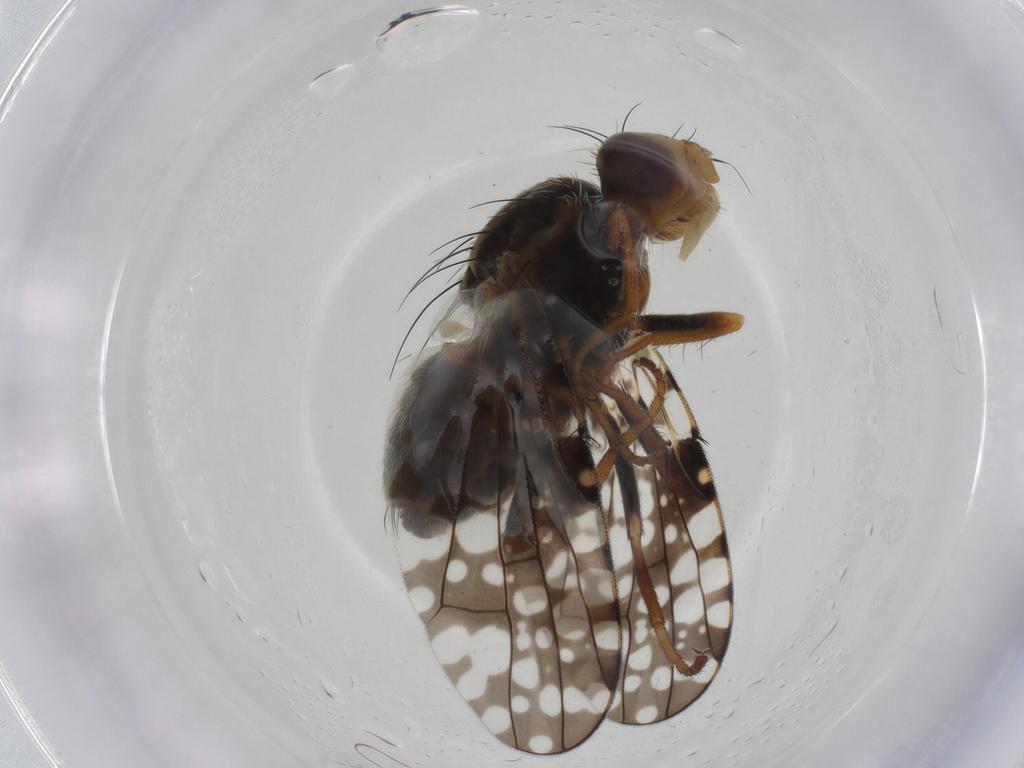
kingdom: Animalia
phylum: Arthropoda
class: Insecta
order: Diptera
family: Tephritidae
